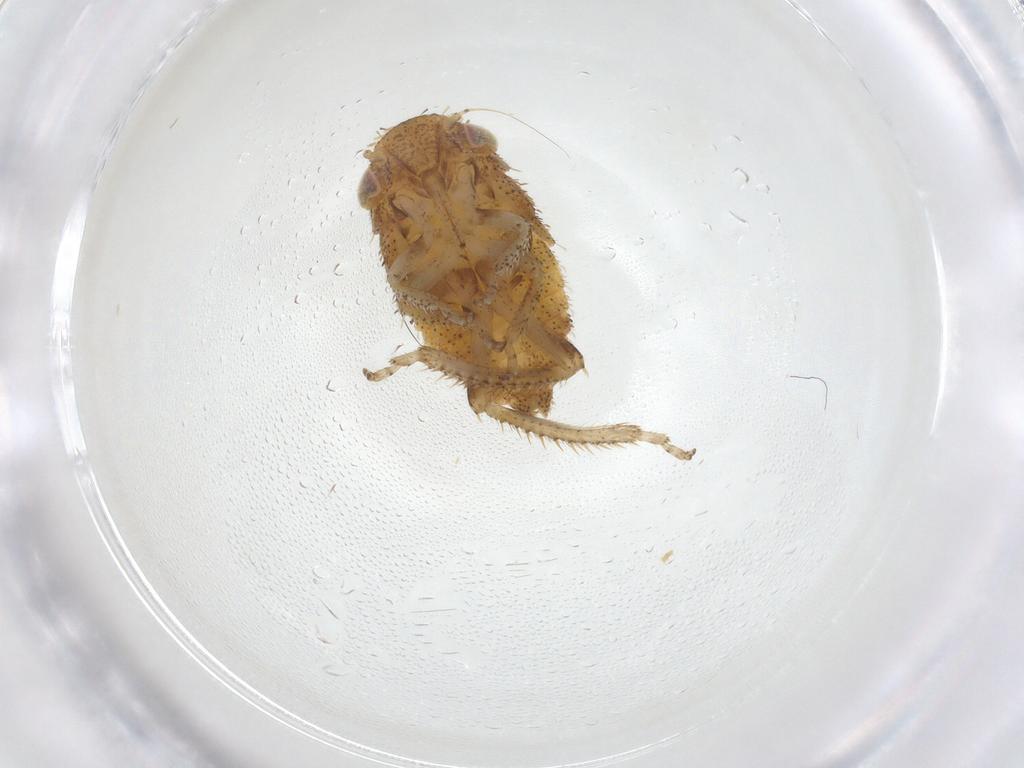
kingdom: Animalia
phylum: Arthropoda
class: Insecta
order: Hemiptera
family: Cicadellidae
